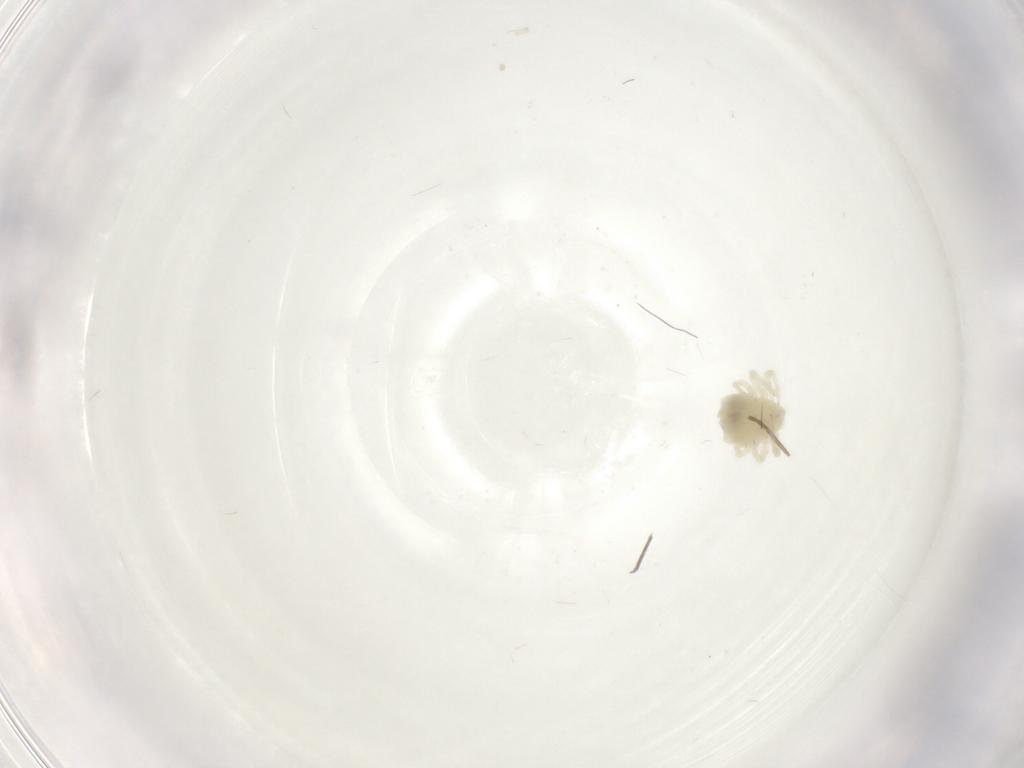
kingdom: Animalia
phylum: Arthropoda
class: Arachnida
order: Trombidiformes
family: Anystidae
